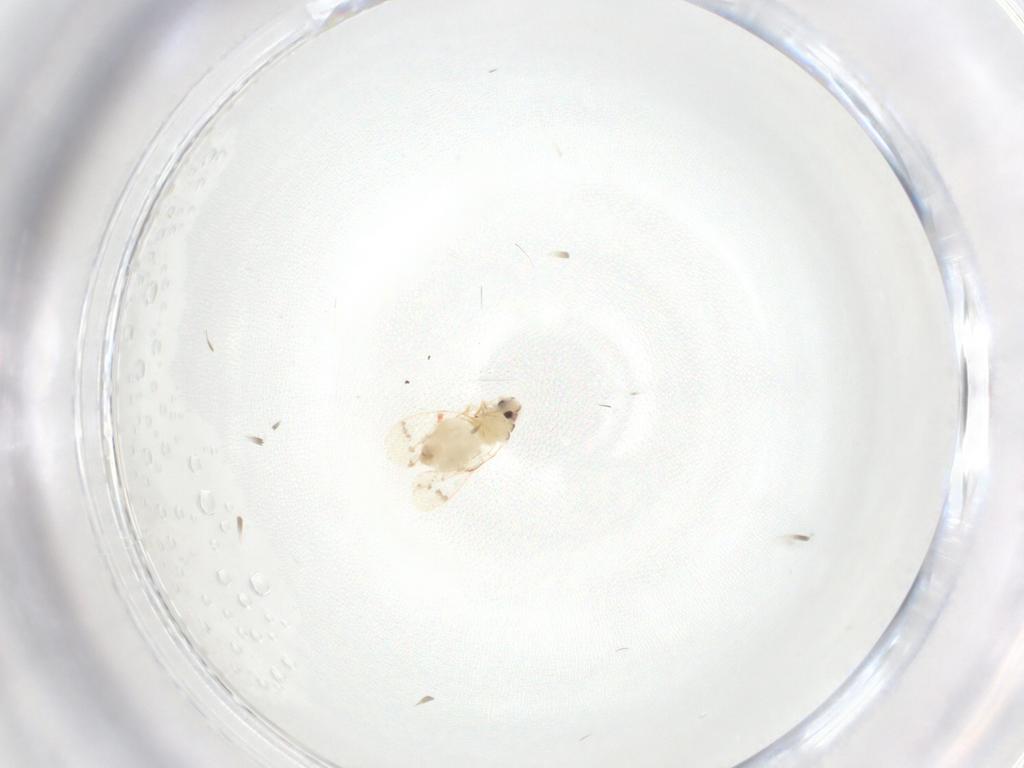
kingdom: Animalia
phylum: Arthropoda
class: Insecta
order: Hemiptera
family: Aleyrodidae
